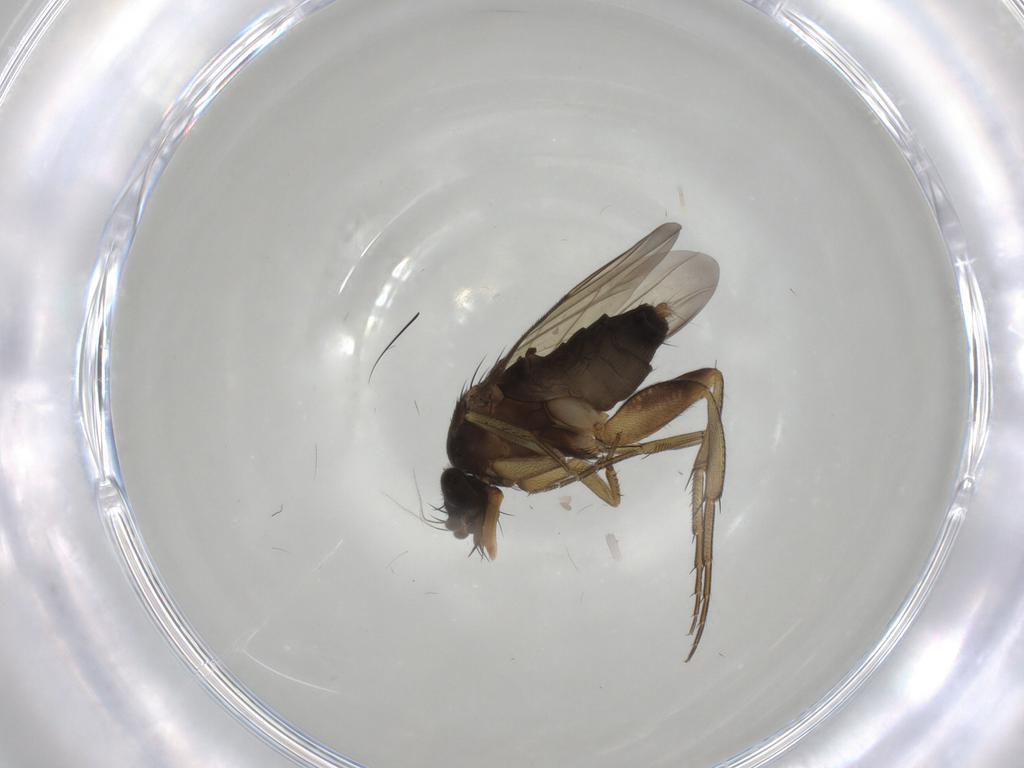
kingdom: Animalia
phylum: Arthropoda
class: Insecta
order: Diptera
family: Phoridae
